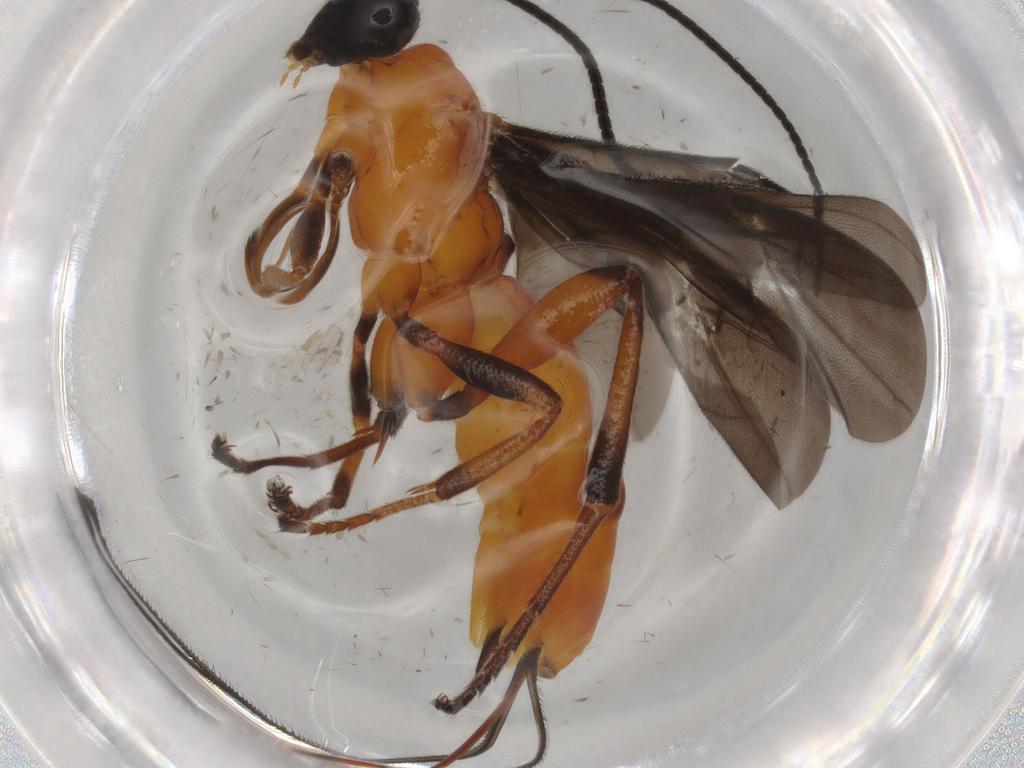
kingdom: Animalia
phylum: Arthropoda
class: Insecta
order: Hymenoptera
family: Braconidae
